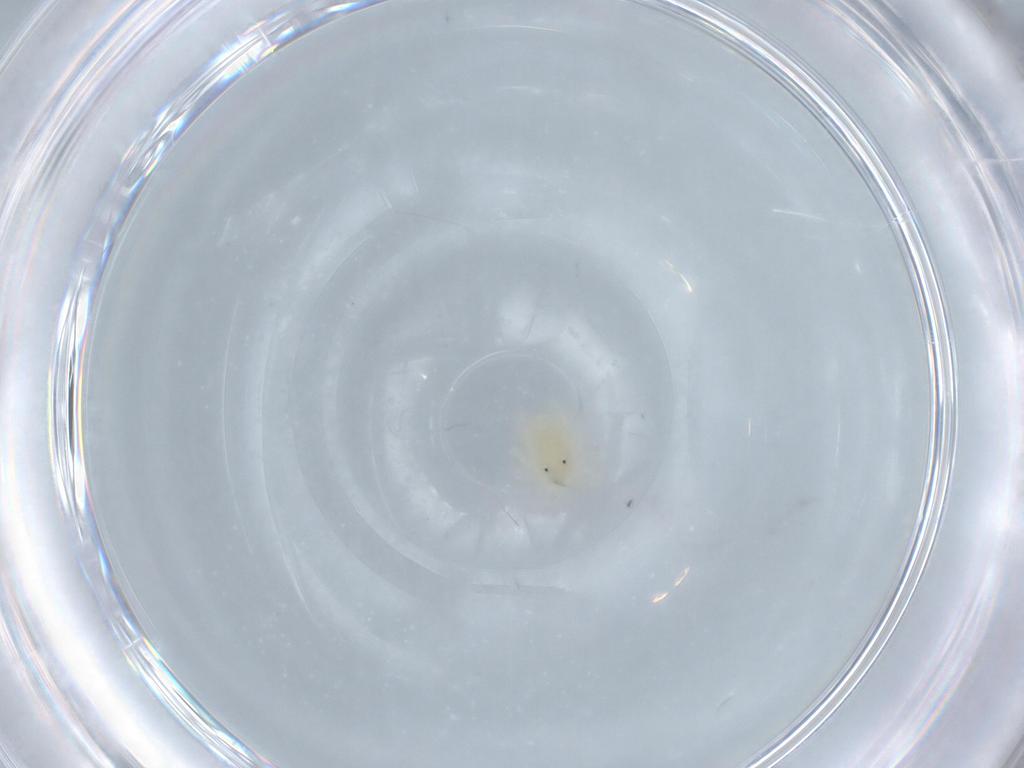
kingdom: Animalia
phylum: Arthropoda
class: Arachnida
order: Trombidiformes
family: Anystidae
